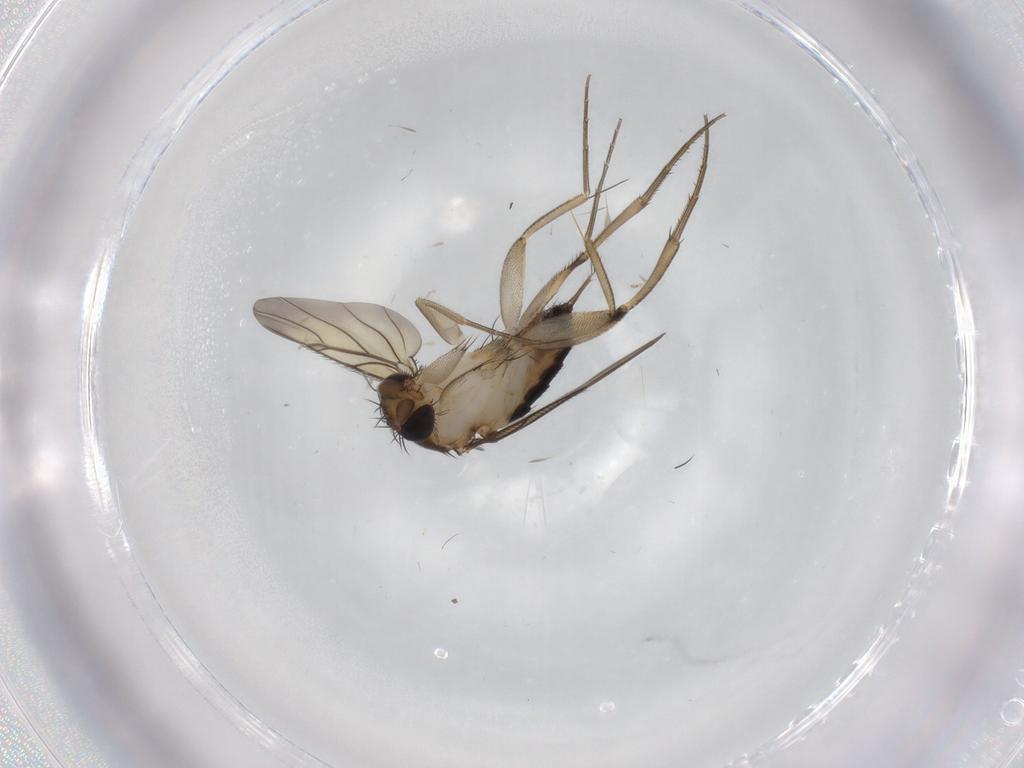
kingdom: Animalia
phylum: Arthropoda
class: Insecta
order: Diptera
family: Phoridae
